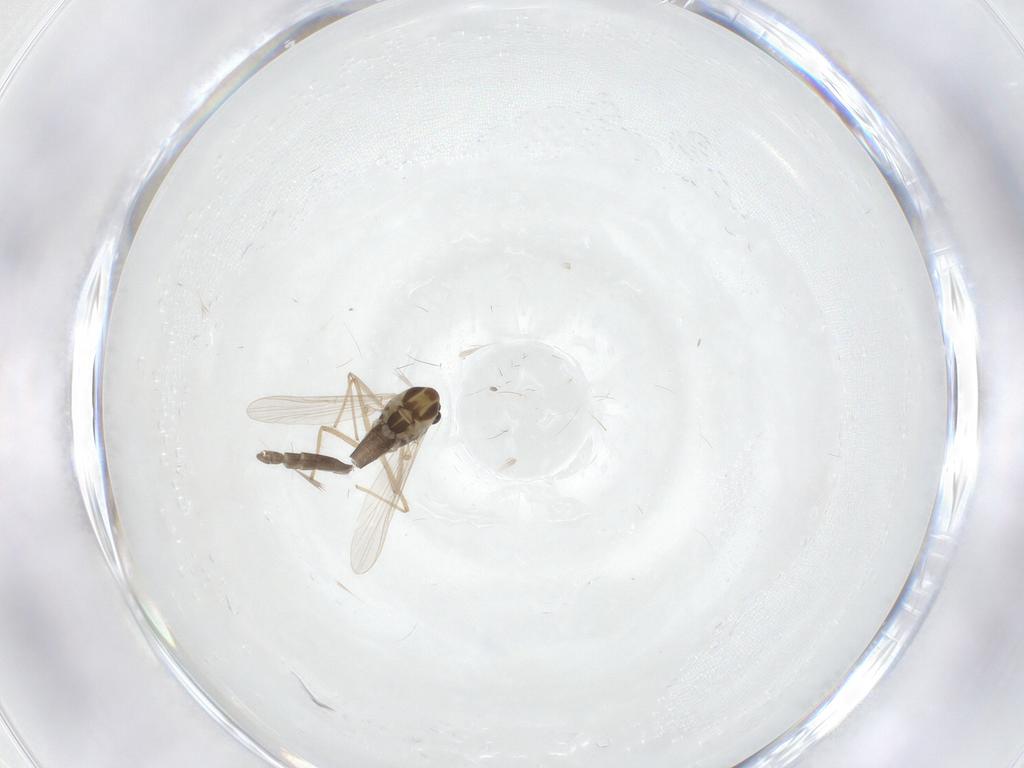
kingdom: Animalia
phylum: Arthropoda
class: Insecta
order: Diptera
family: Chironomidae
